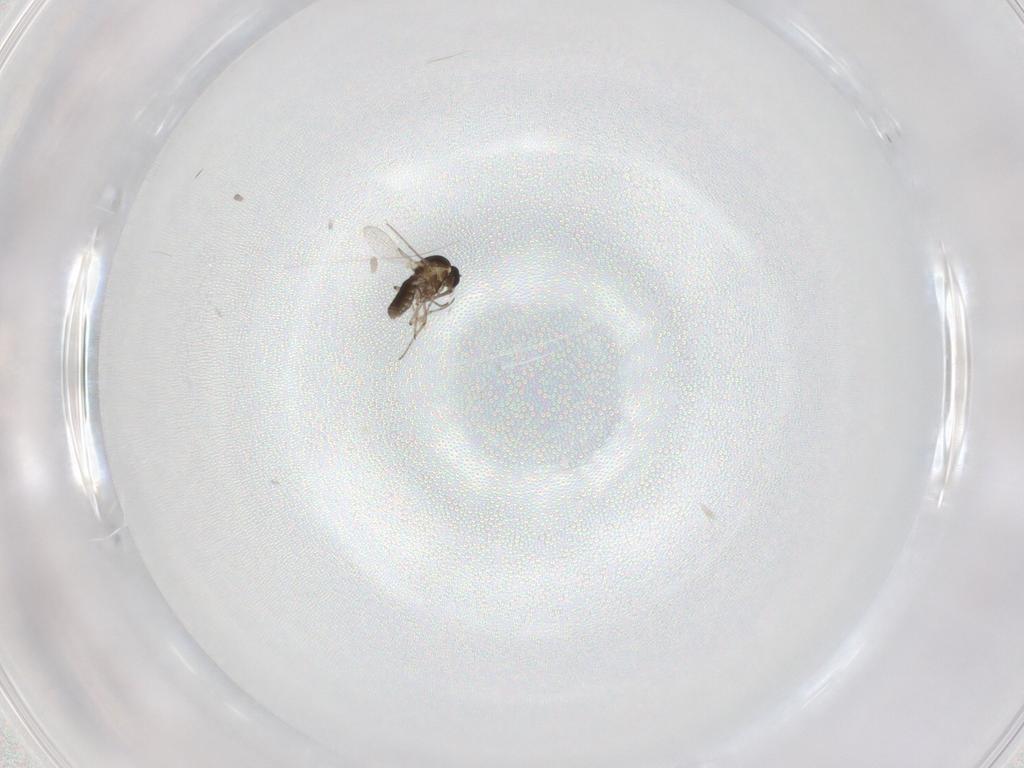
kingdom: Animalia
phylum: Arthropoda
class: Insecta
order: Diptera
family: Ceratopogonidae
